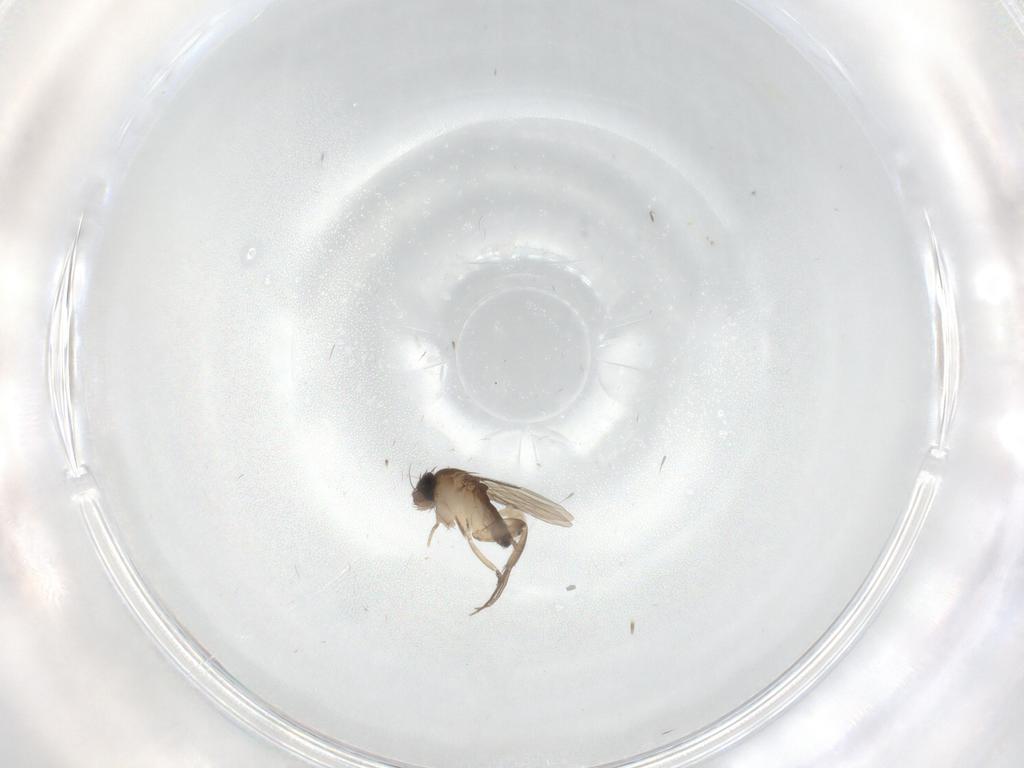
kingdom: Animalia
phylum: Arthropoda
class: Insecta
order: Diptera
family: Phoridae
